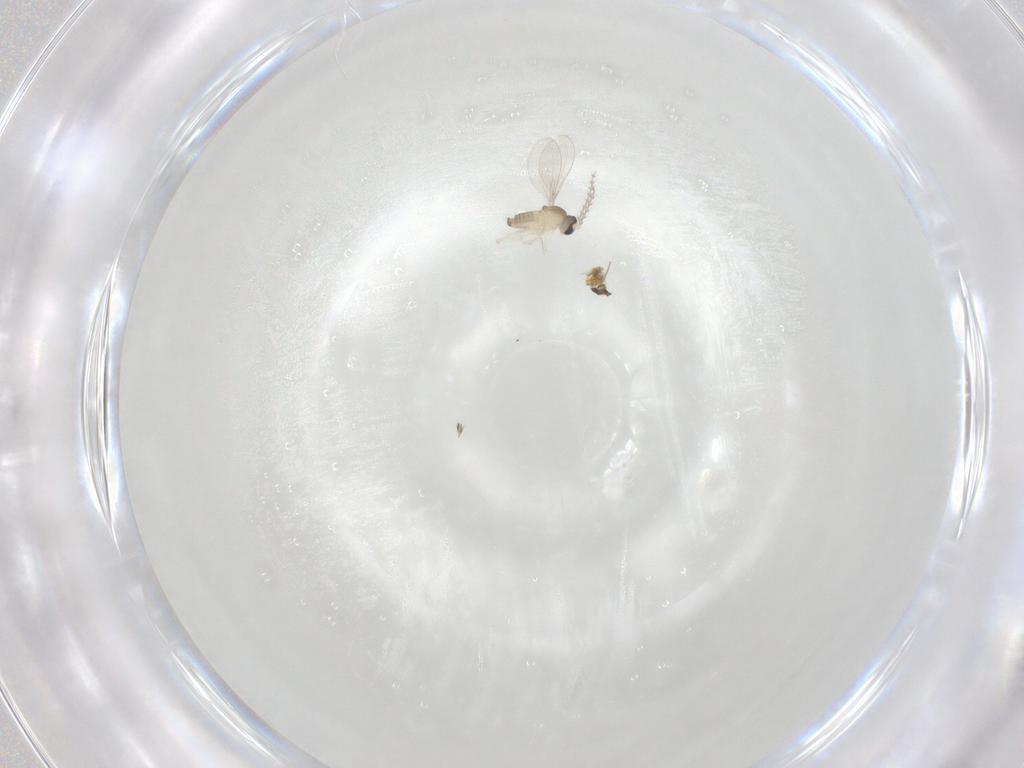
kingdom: Animalia
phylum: Arthropoda
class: Insecta
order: Diptera
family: Cecidomyiidae
